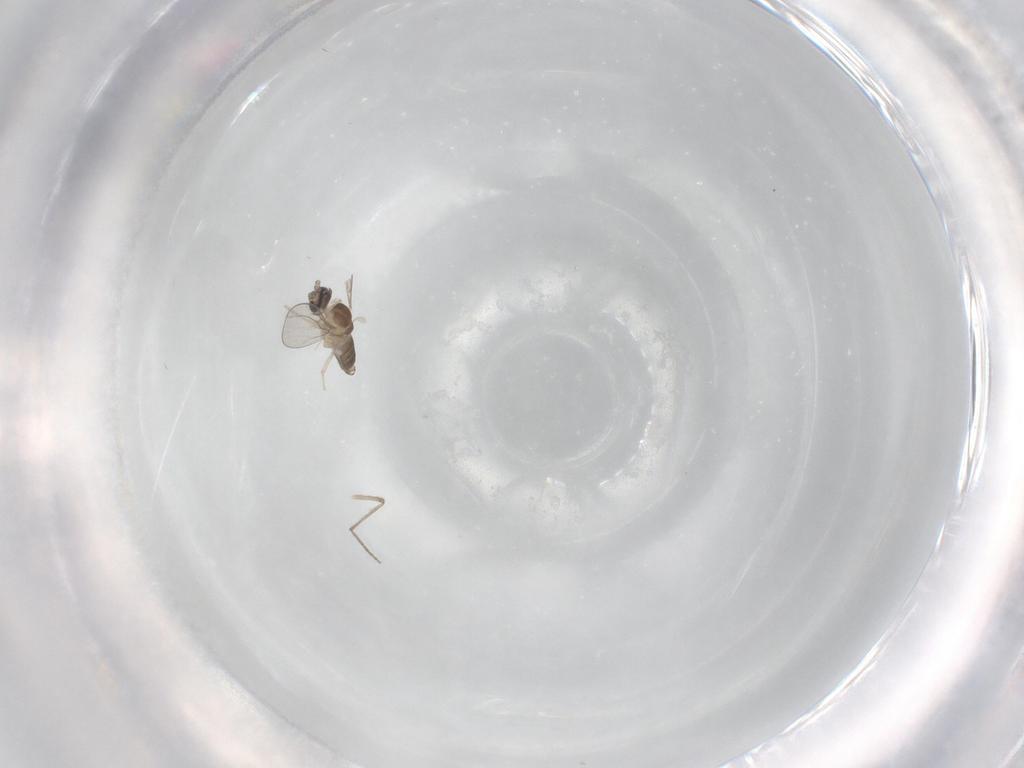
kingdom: Animalia
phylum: Arthropoda
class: Insecta
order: Diptera
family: Cecidomyiidae
